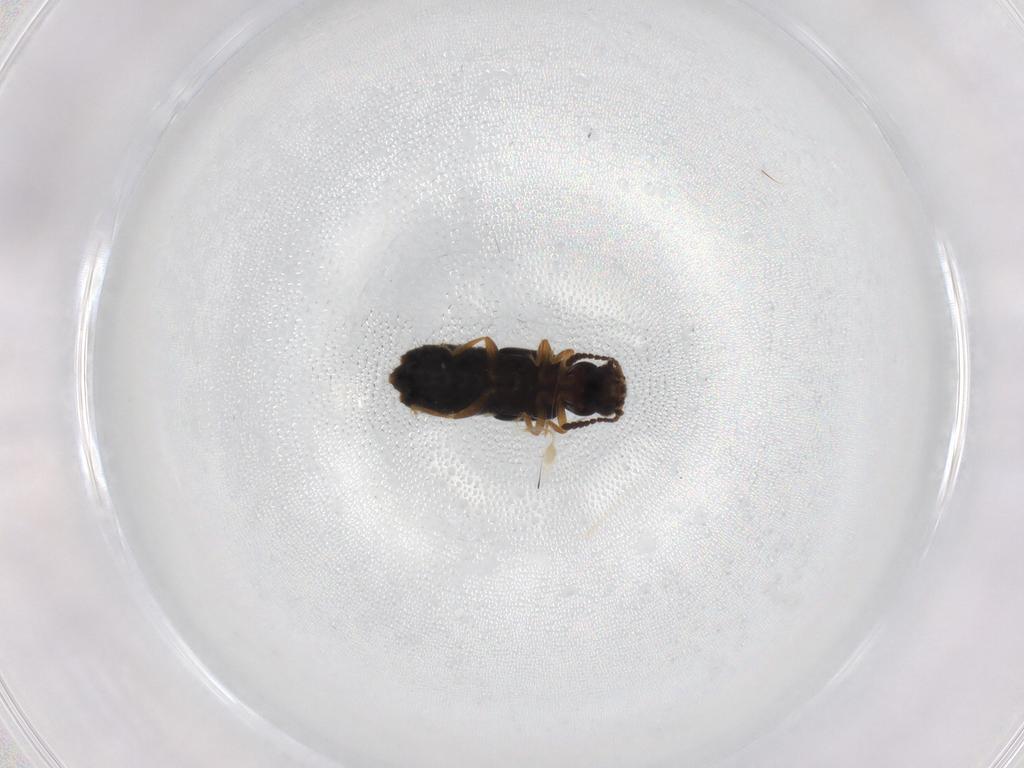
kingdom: Animalia
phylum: Arthropoda
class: Insecta
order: Coleoptera
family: Staphylinidae
